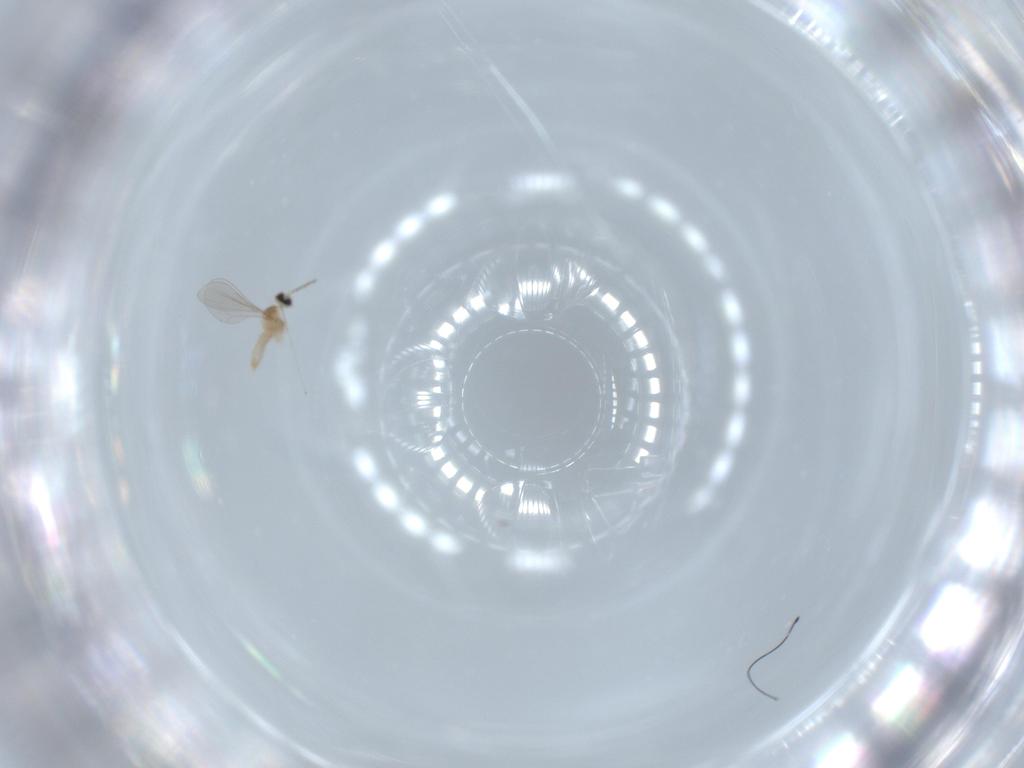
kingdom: Animalia
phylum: Arthropoda
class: Insecta
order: Diptera
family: Cecidomyiidae
